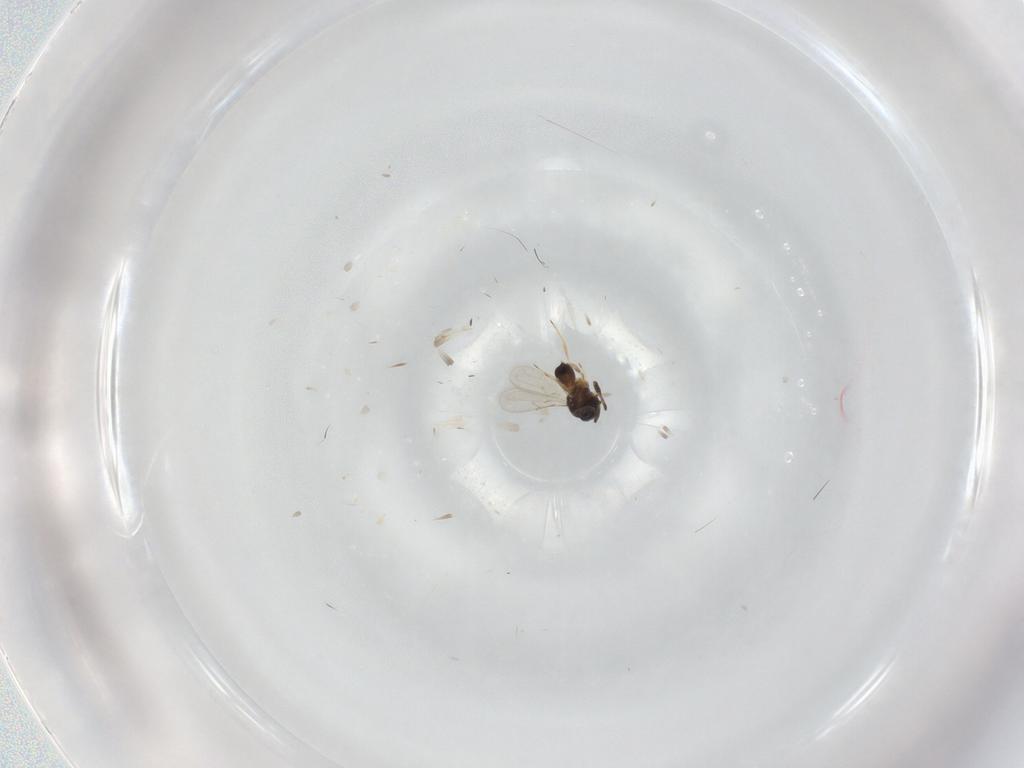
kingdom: Animalia
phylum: Arthropoda
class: Insecta
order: Hymenoptera
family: Scelionidae
